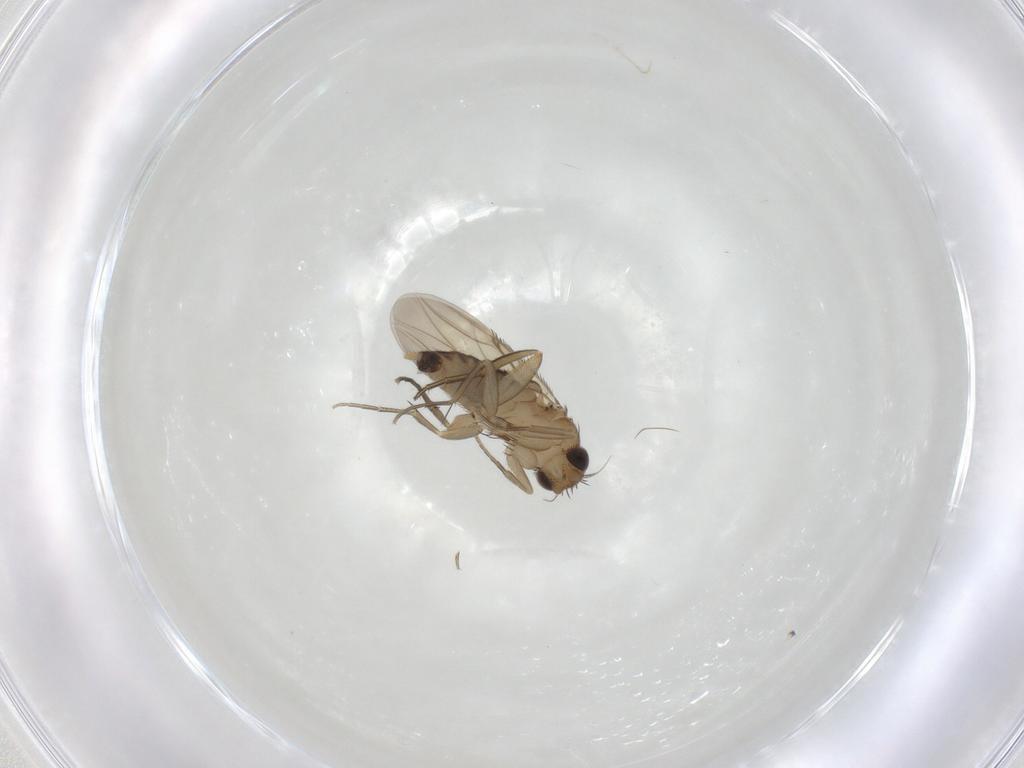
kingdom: Animalia
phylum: Arthropoda
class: Insecta
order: Diptera
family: Phoridae
